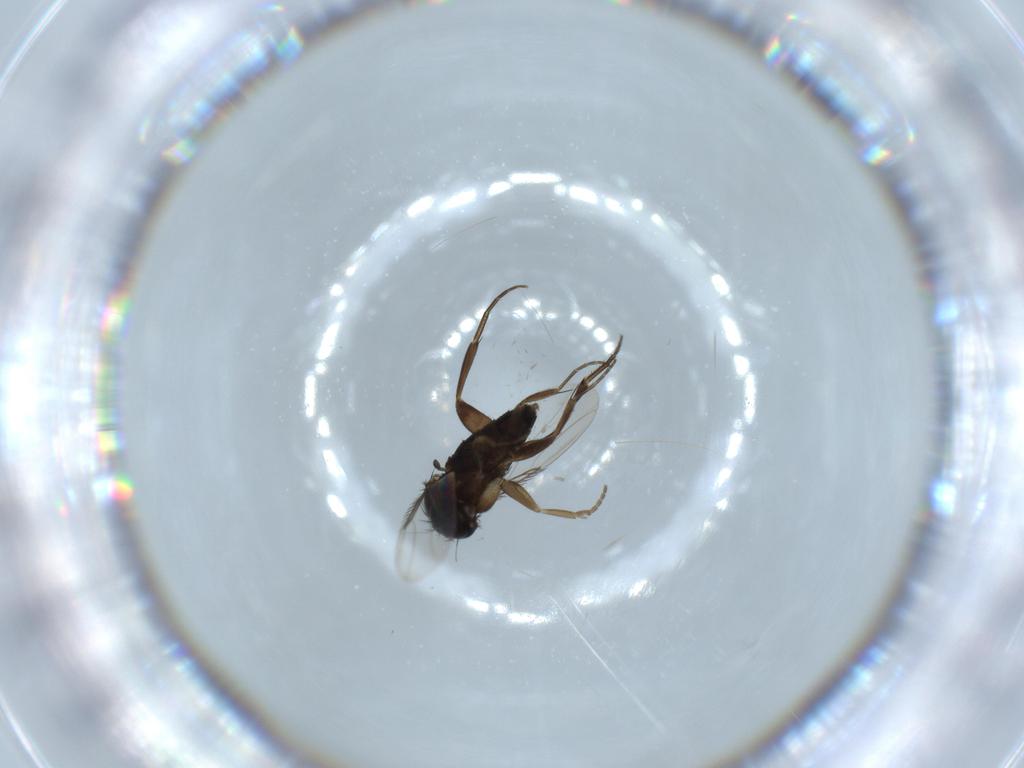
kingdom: Animalia
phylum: Arthropoda
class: Insecta
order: Diptera
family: Phoridae
